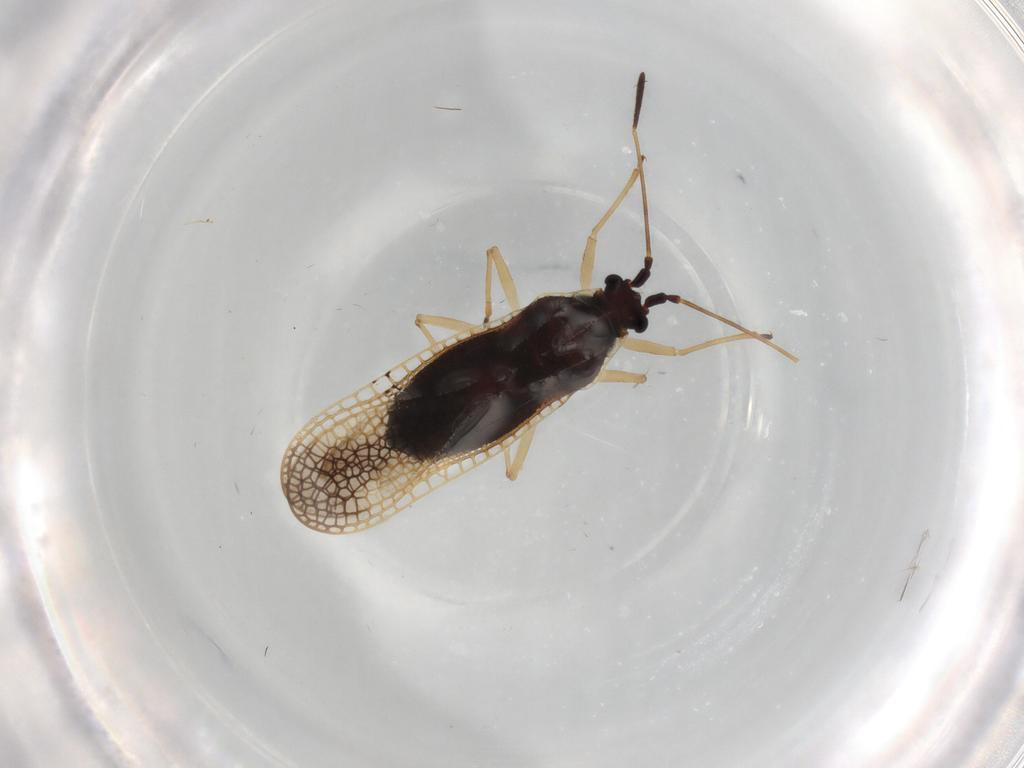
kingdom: Animalia
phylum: Arthropoda
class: Insecta
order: Hemiptera
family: Tingidae
